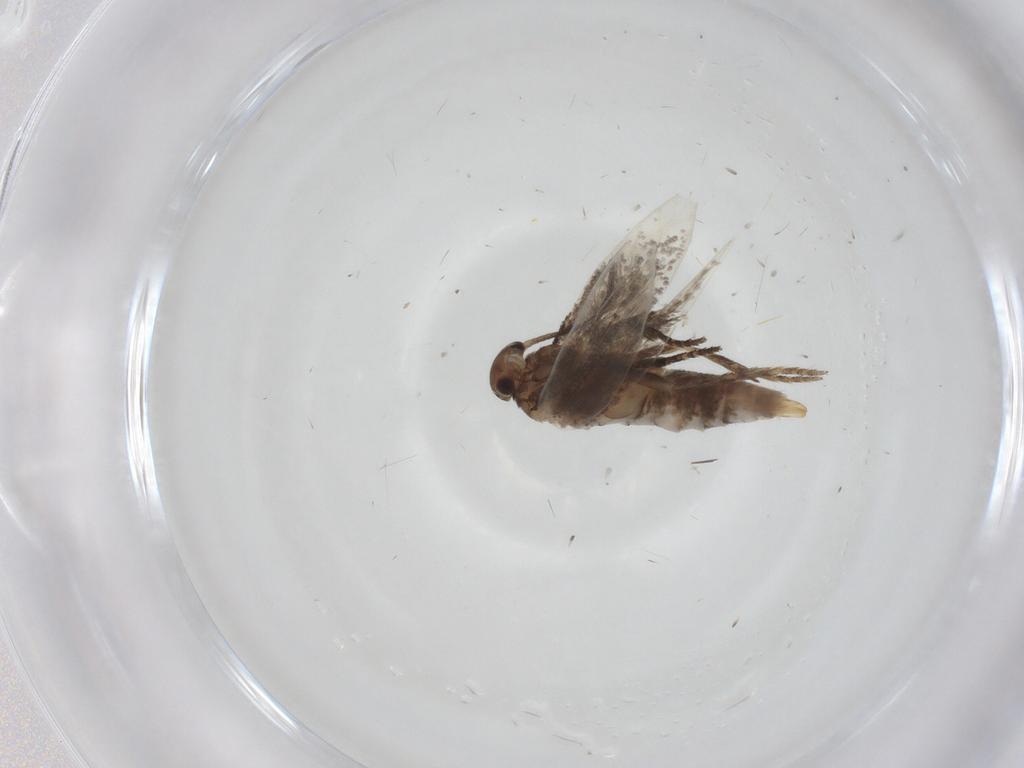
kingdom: Animalia
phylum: Arthropoda
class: Insecta
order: Lepidoptera
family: Elachistidae
